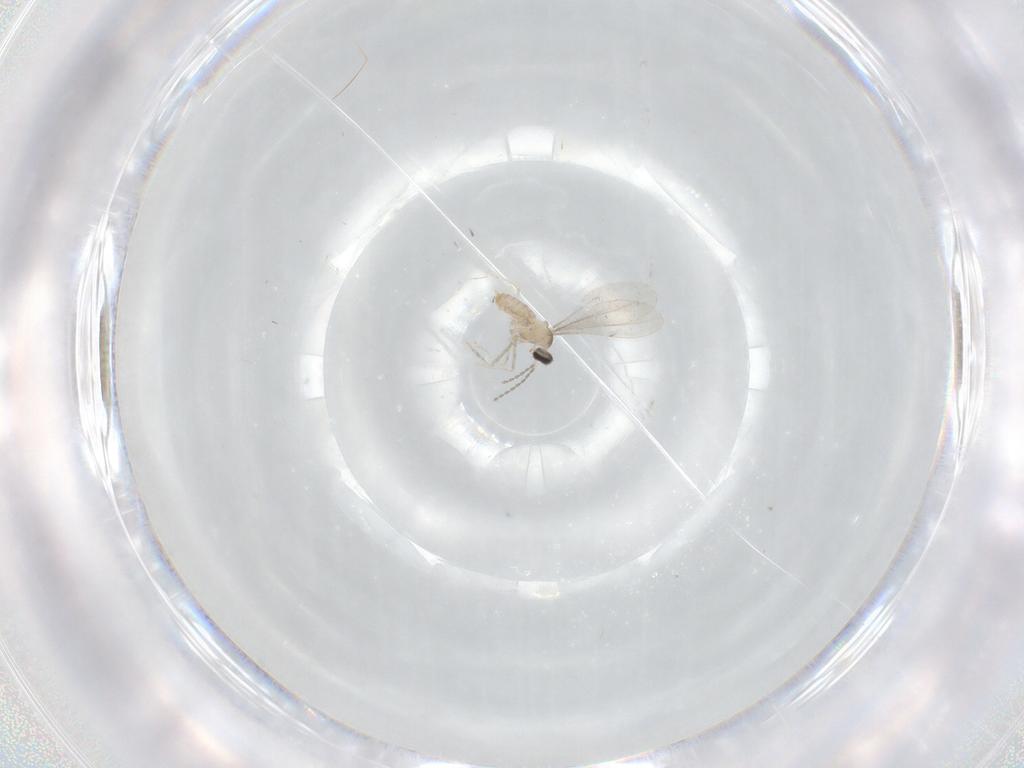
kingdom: Animalia
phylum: Arthropoda
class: Insecta
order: Diptera
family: Cecidomyiidae
